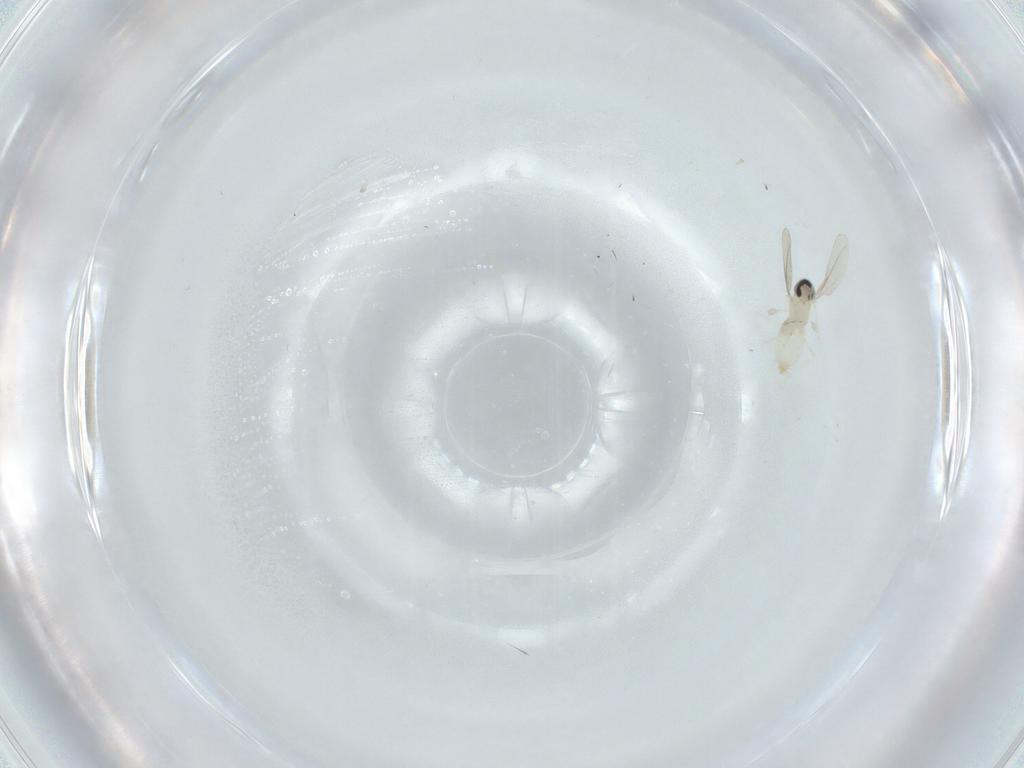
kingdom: Animalia
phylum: Arthropoda
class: Insecta
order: Diptera
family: Cecidomyiidae
